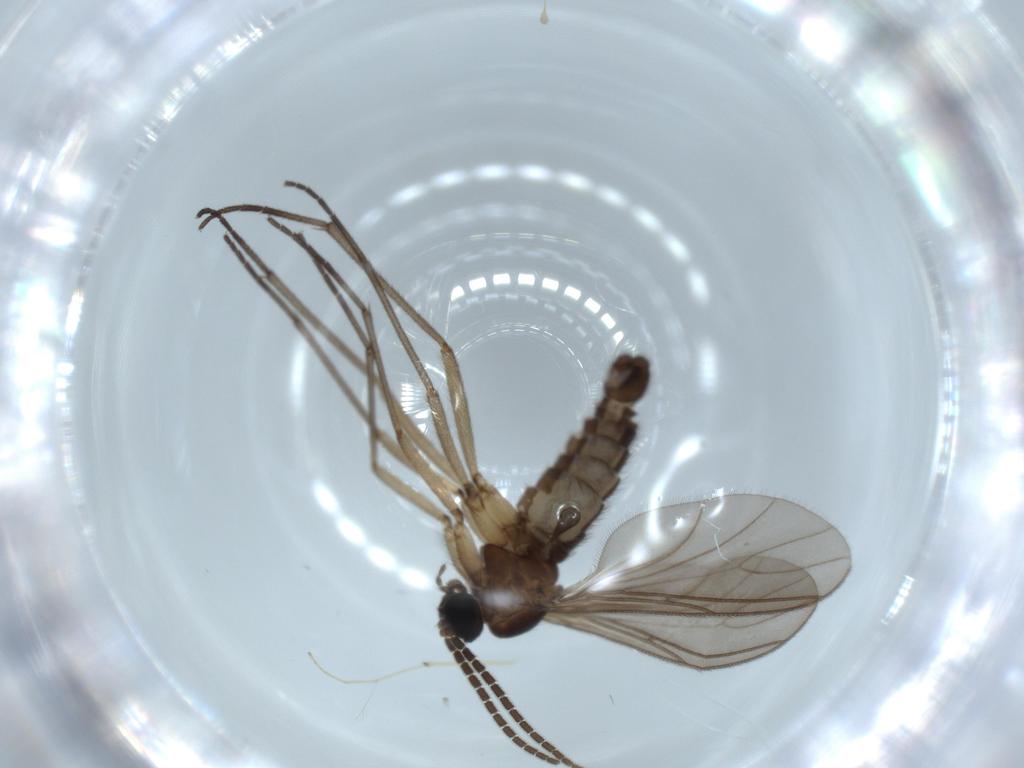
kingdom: Animalia
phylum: Arthropoda
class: Insecta
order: Diptera
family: Sciaridae
